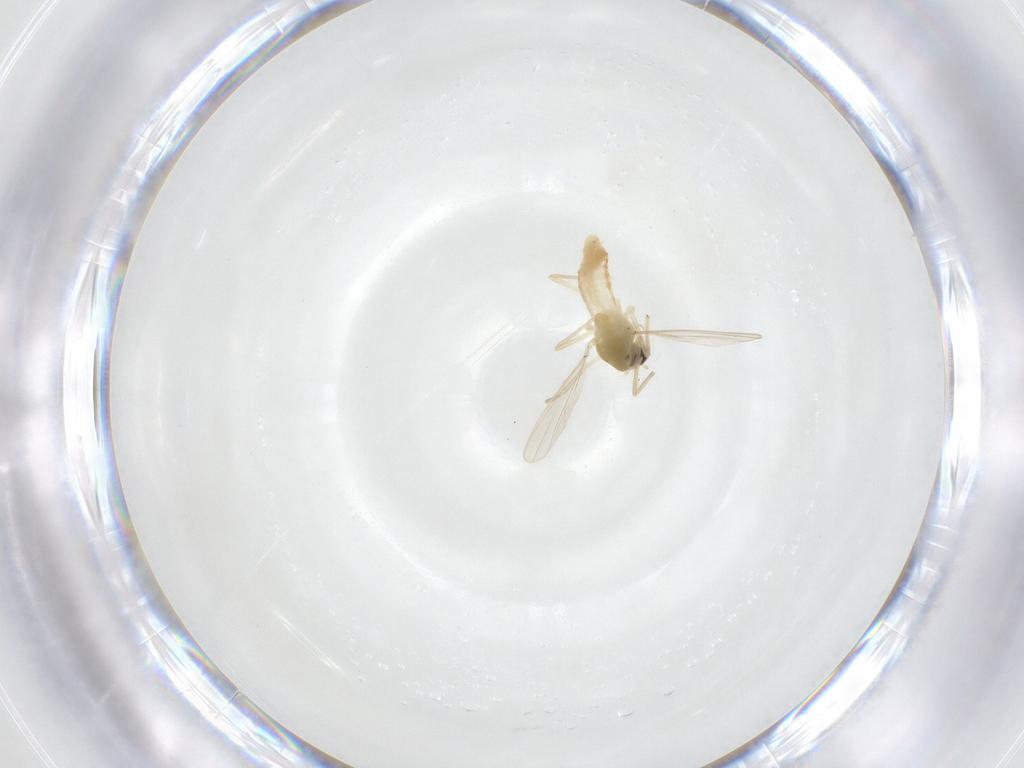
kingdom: Animalia
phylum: Arthropoda
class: Insecta
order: Diptera
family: Chironomidae
